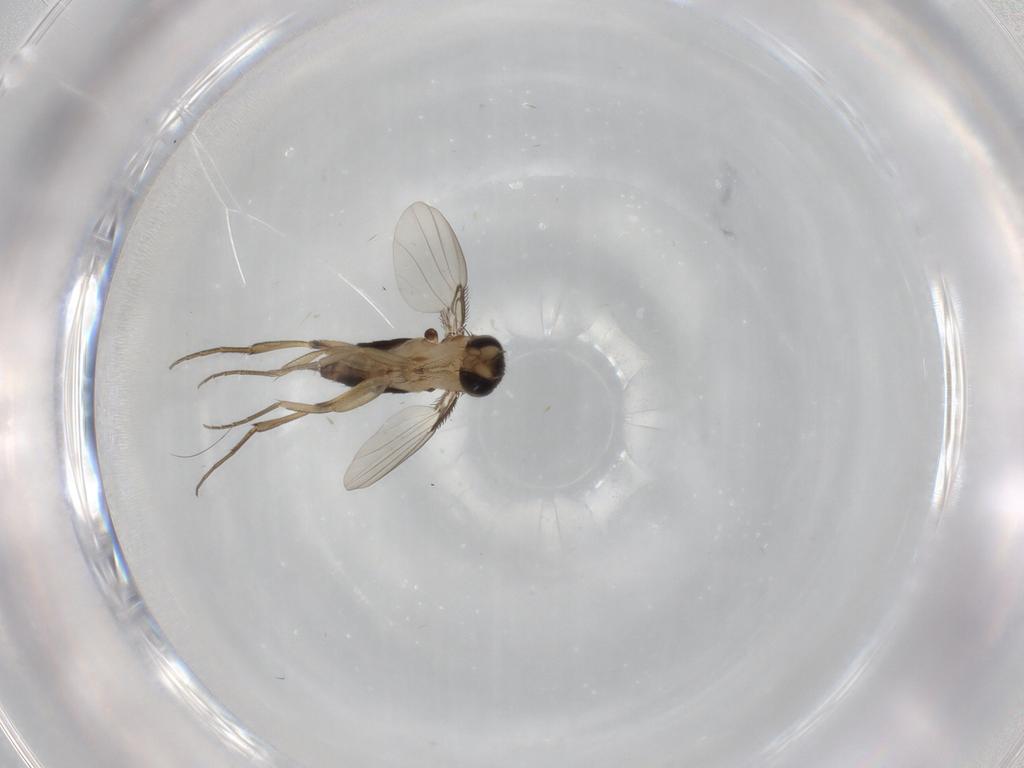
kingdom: Animalia
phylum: Arthropoda
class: Insecta
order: Diptera
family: Phoridae
